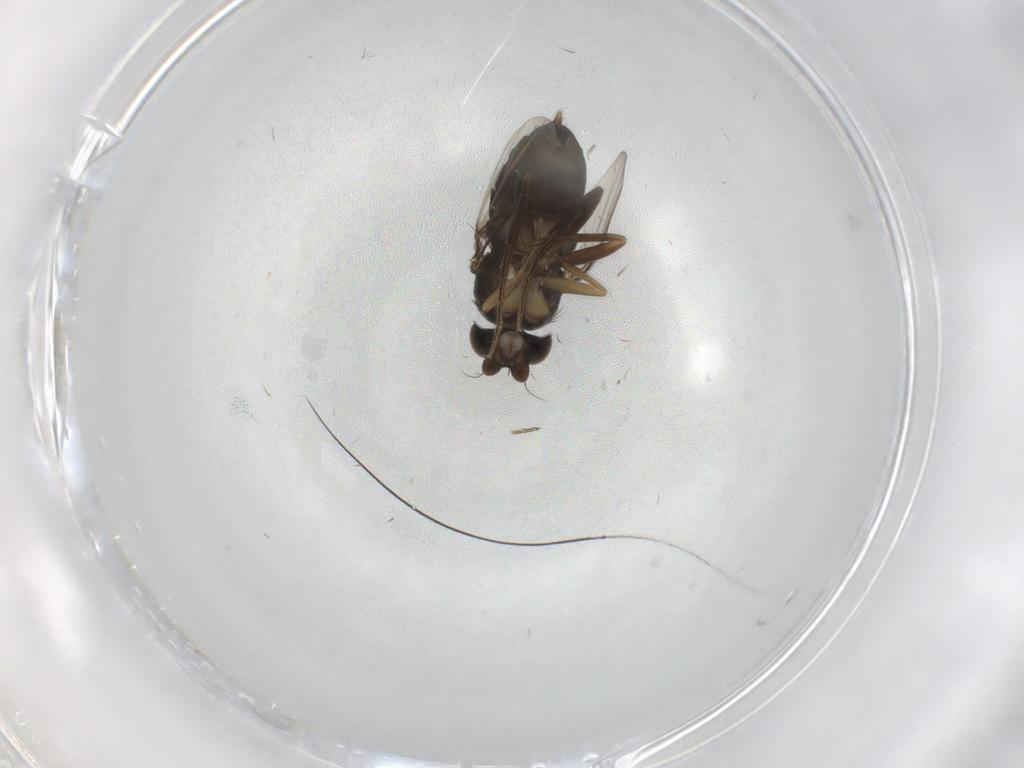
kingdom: Animalia
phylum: Arthropoda
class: Insecta
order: Diptera
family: Phoridae
